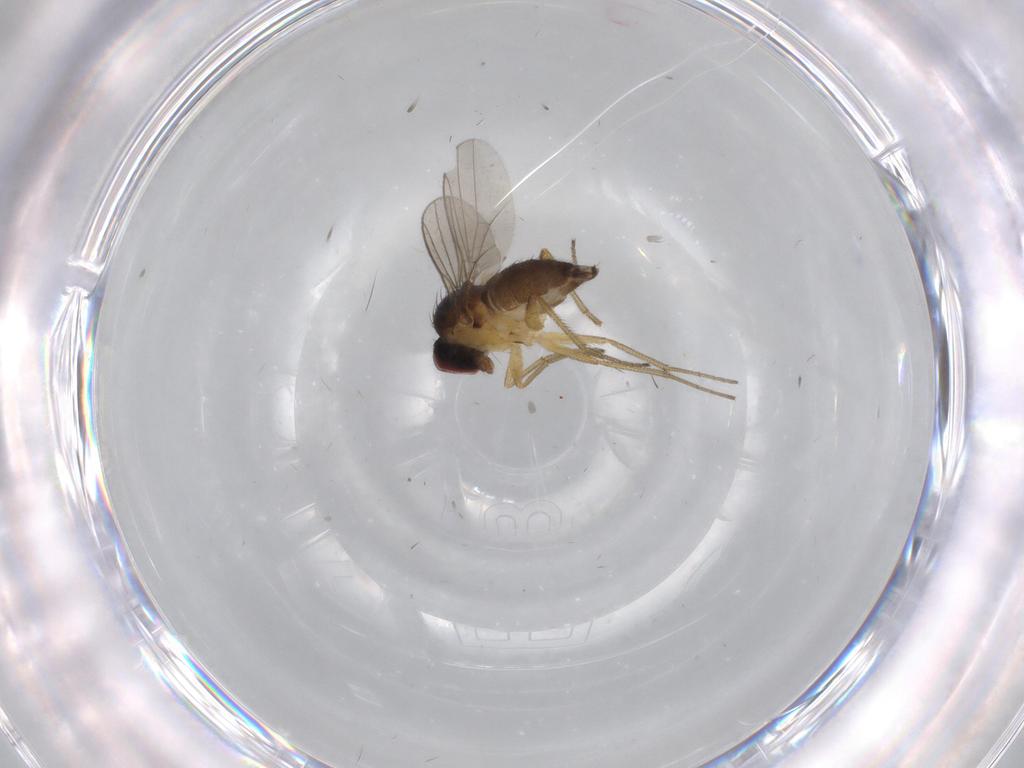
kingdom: Animalia
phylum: Arthropoda
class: Insecta
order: Diptera
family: Dolichopodidae
